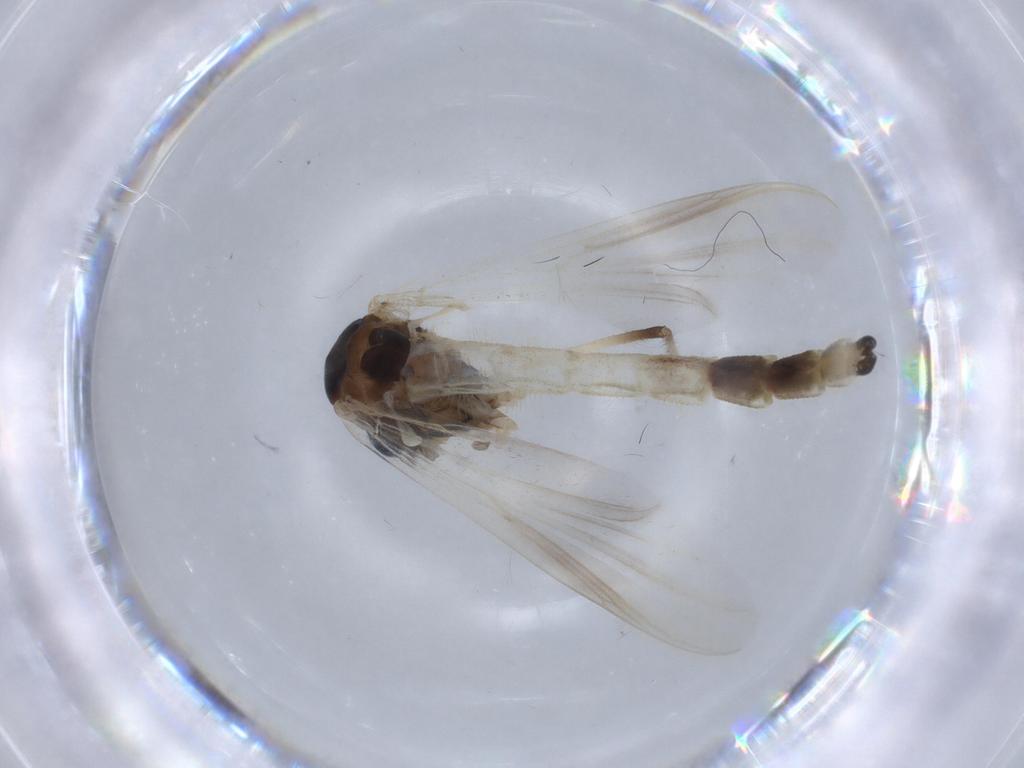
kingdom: Animalia
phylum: Arthropoda
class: Insecta
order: Diptera
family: Phoridae
